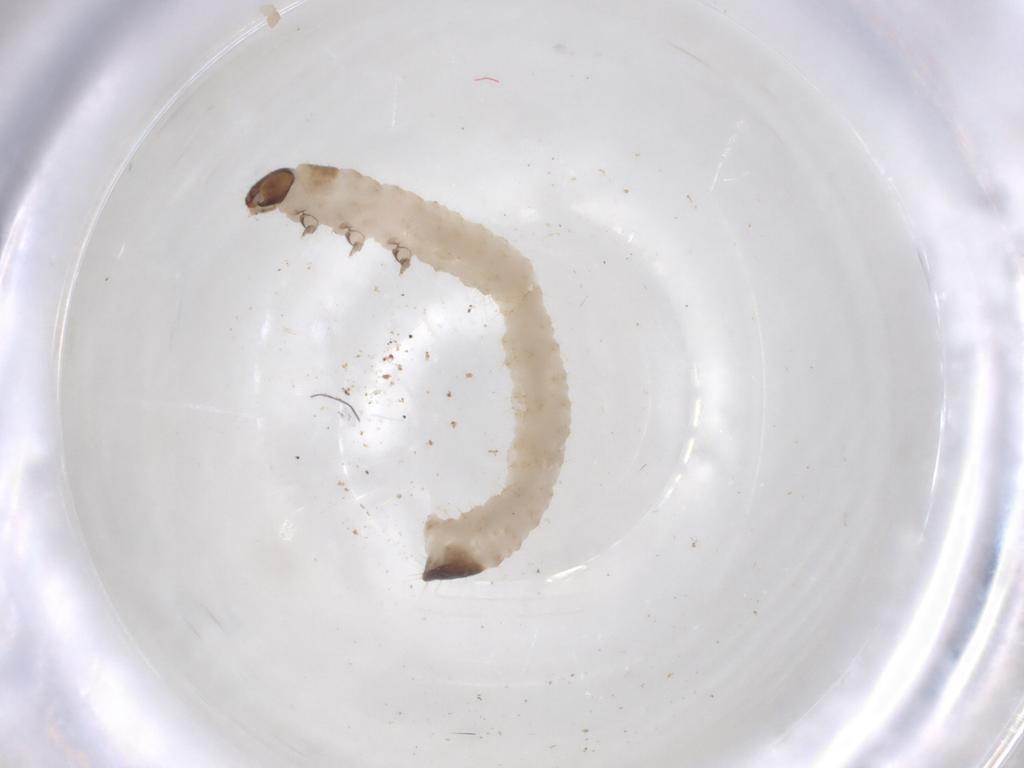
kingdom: Animalia
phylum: Arthropoda
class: Insecta
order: Coleoptera
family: Chrysomelidae
